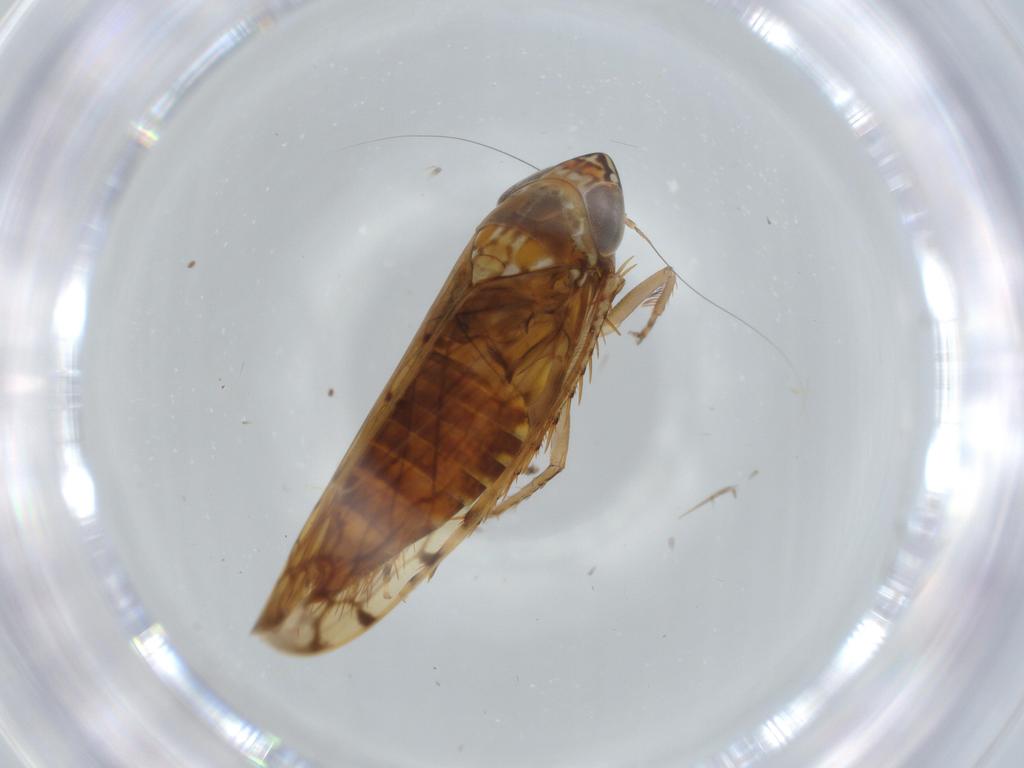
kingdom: Animalia
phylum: Arthropoda
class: Insecta
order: Hemiptera
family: Cicadellidae
